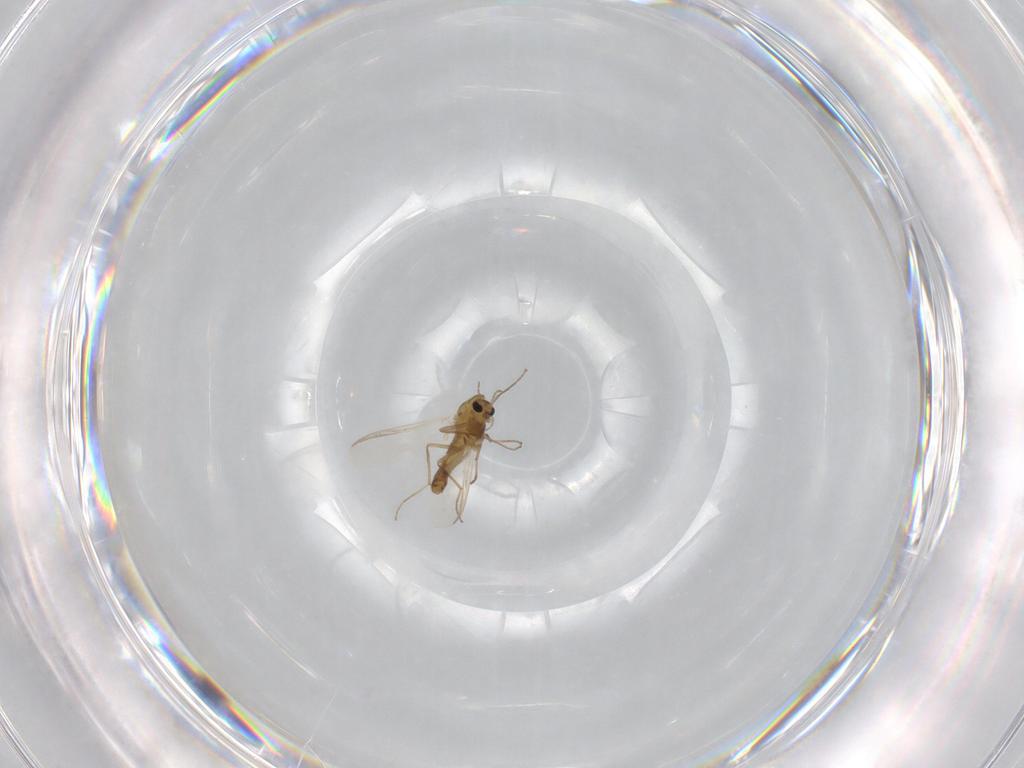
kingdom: Animalia
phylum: Arthropoda
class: Insecta
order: Diptera
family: Chironomidae
